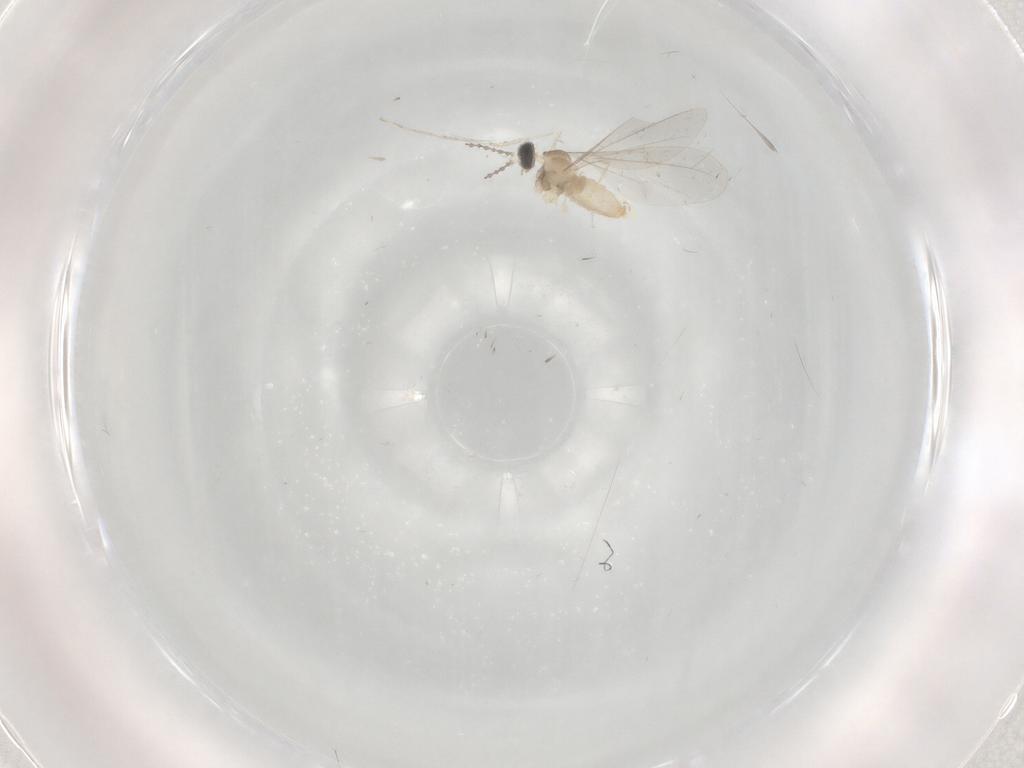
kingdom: Animalia
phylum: Arthropoda
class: Insecta
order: Diptera
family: Cecidomyiidae
